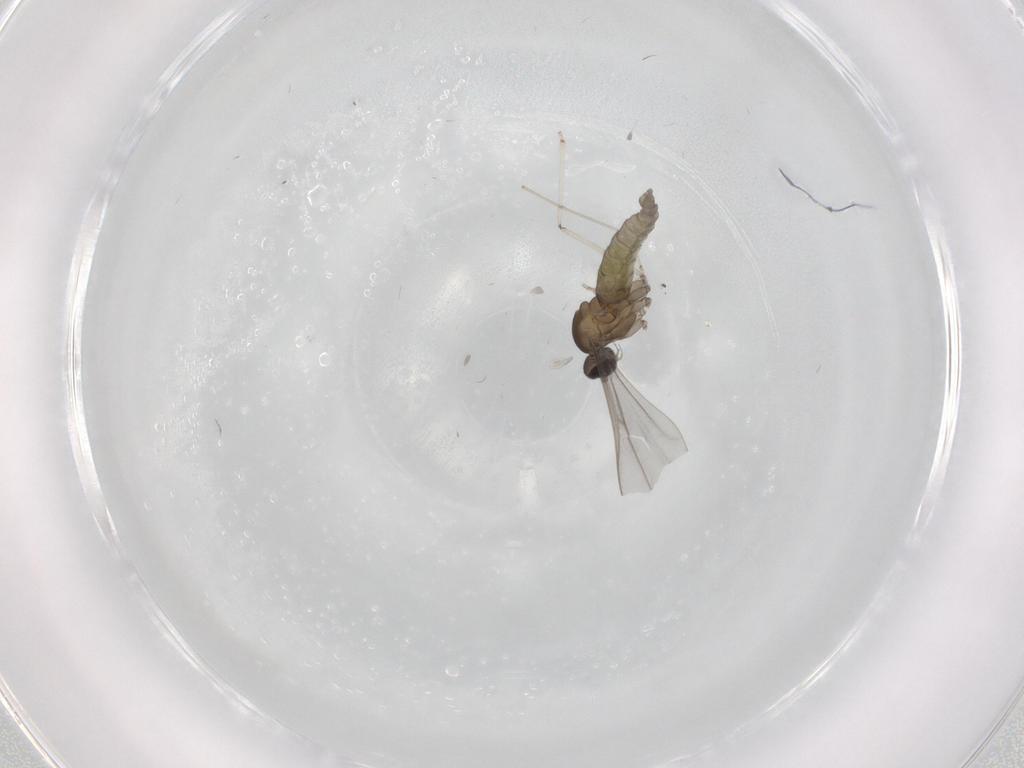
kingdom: Animalia
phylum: Arthropoda
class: Insecta
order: Diptera
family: Cecidomyiidae
